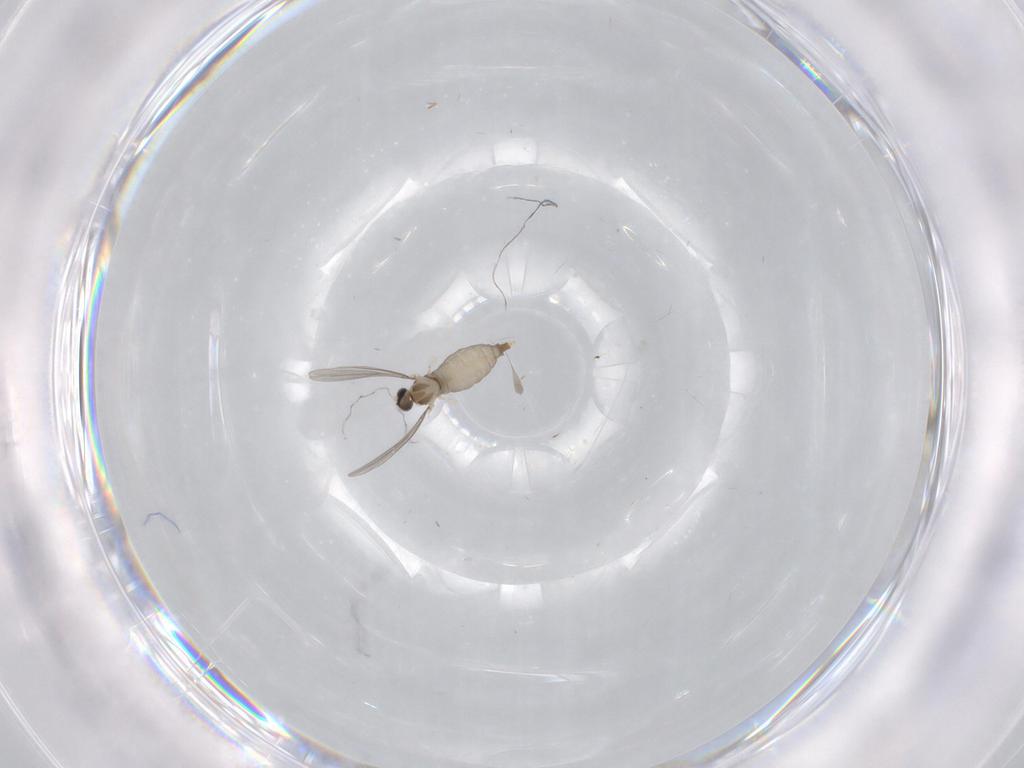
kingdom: Animalia
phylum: Arthropoda
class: Insecta
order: Diptera
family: Cecidomyiidae
